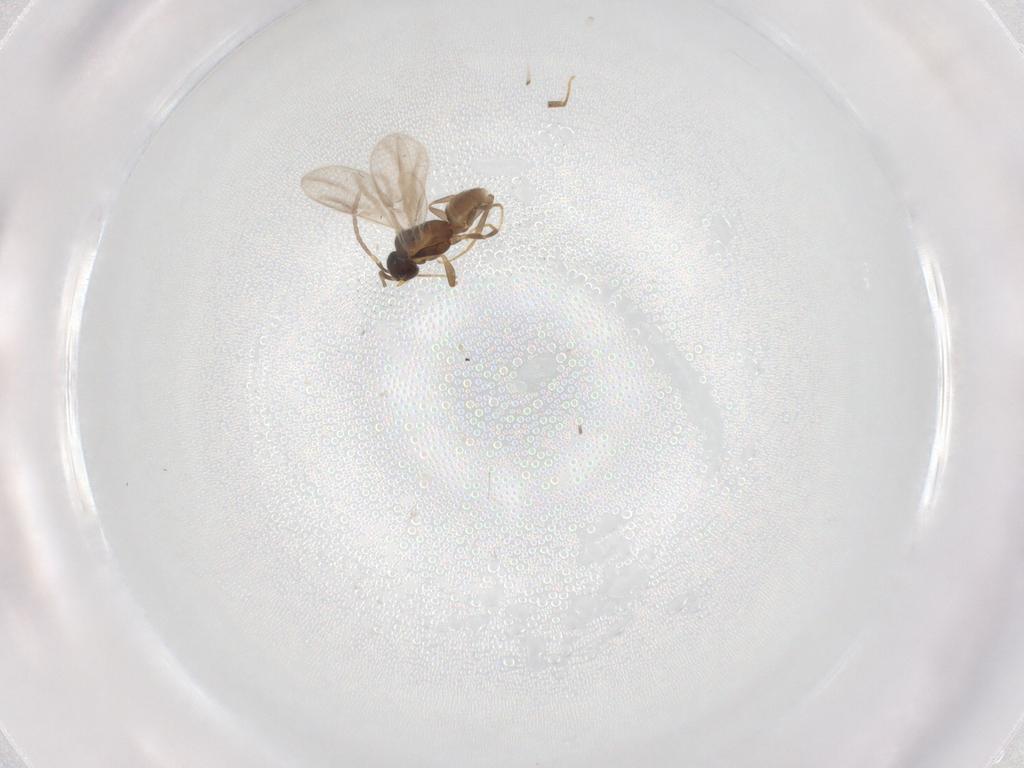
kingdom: Animalia
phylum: Arthropoda
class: Insecta
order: Hymenoptera
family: Dryinidae
